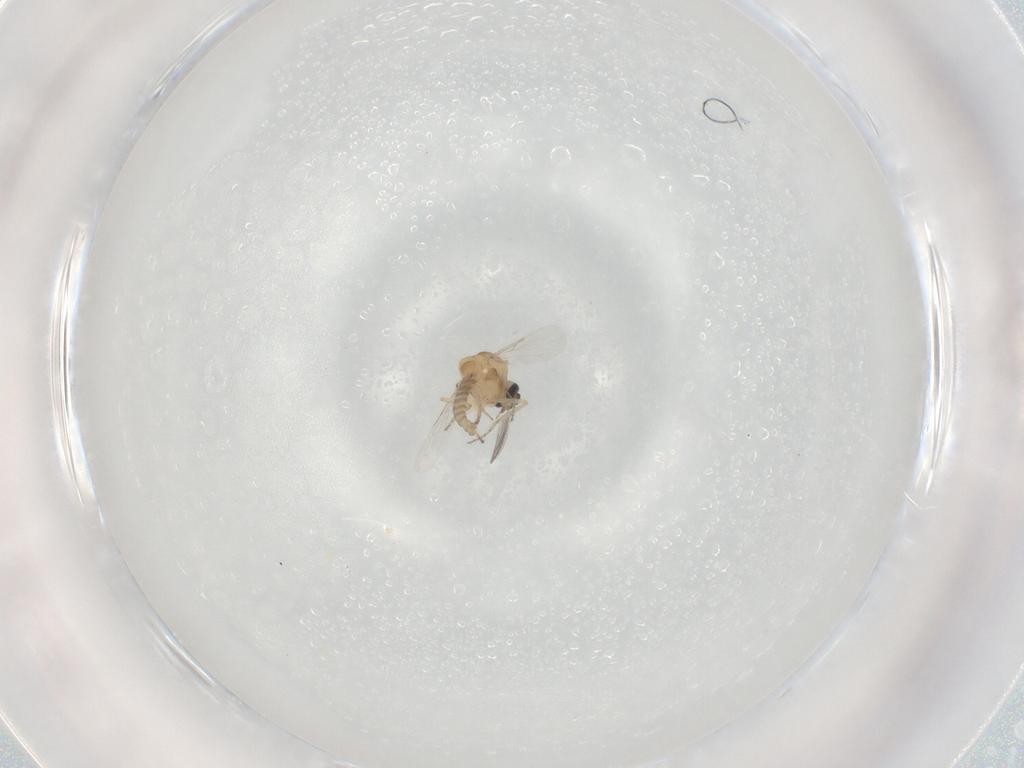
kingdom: Animalia
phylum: Arthropoda
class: Insecta
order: Diptera
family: Ceratopogonidae
